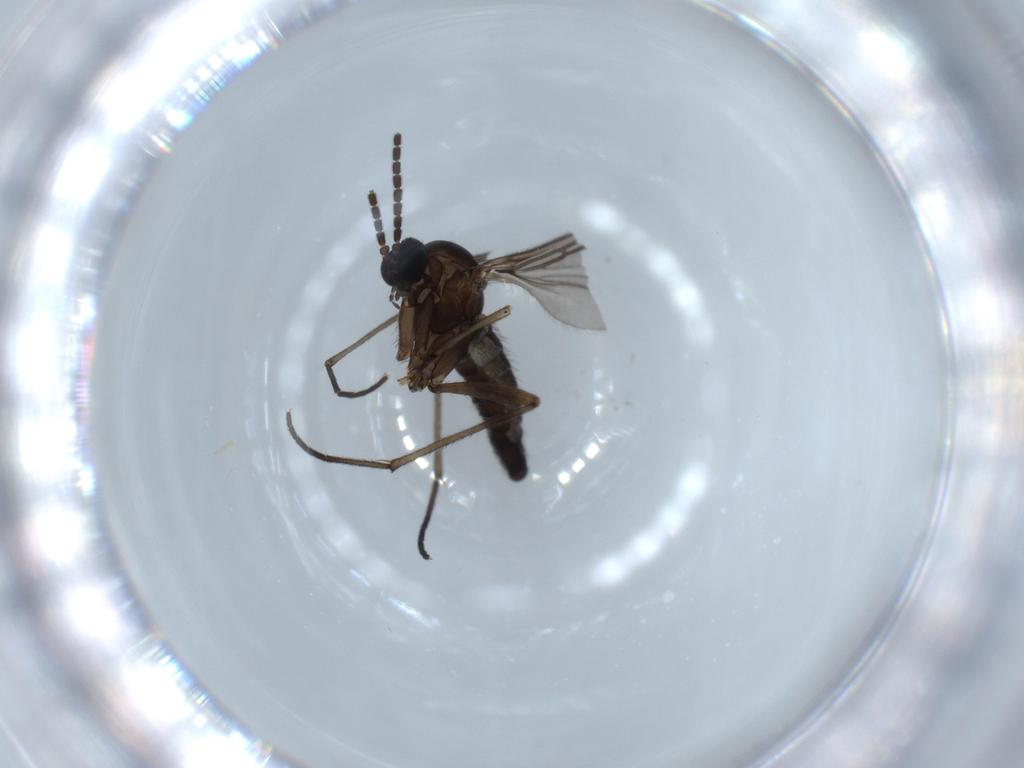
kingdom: Animalia
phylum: Arthropoda
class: Insecta
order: Diptera
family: Sciaridae
